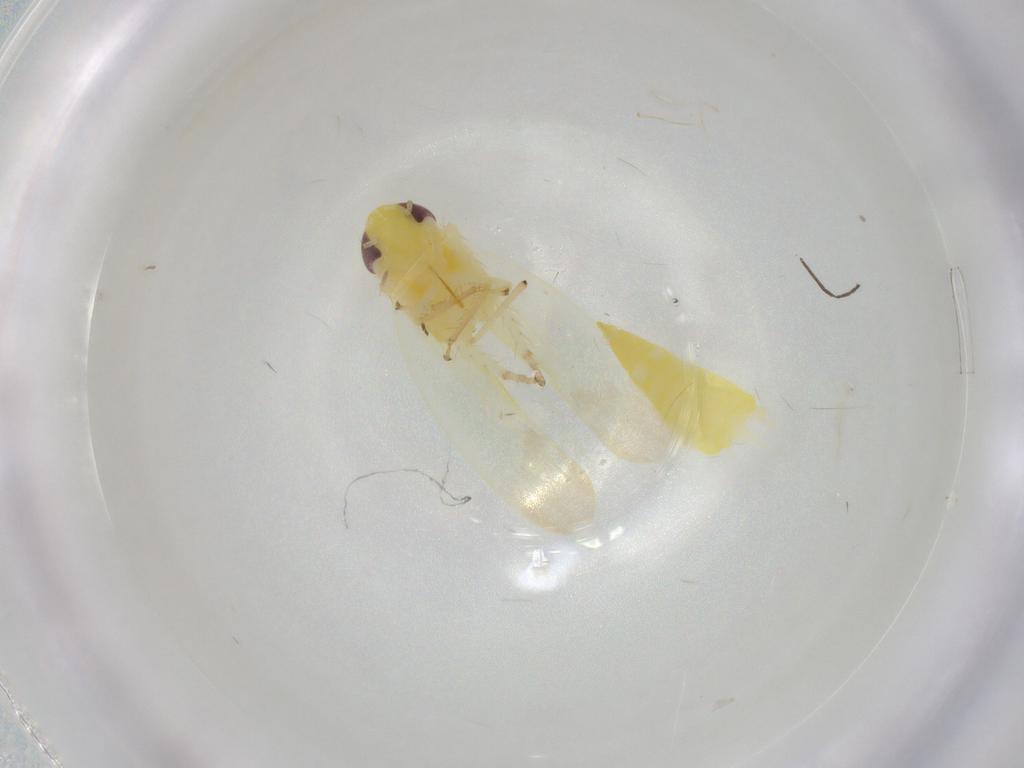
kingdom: Animalia
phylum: Arthropoda
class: Insecta
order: Hemiptera
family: Cicadellidae
